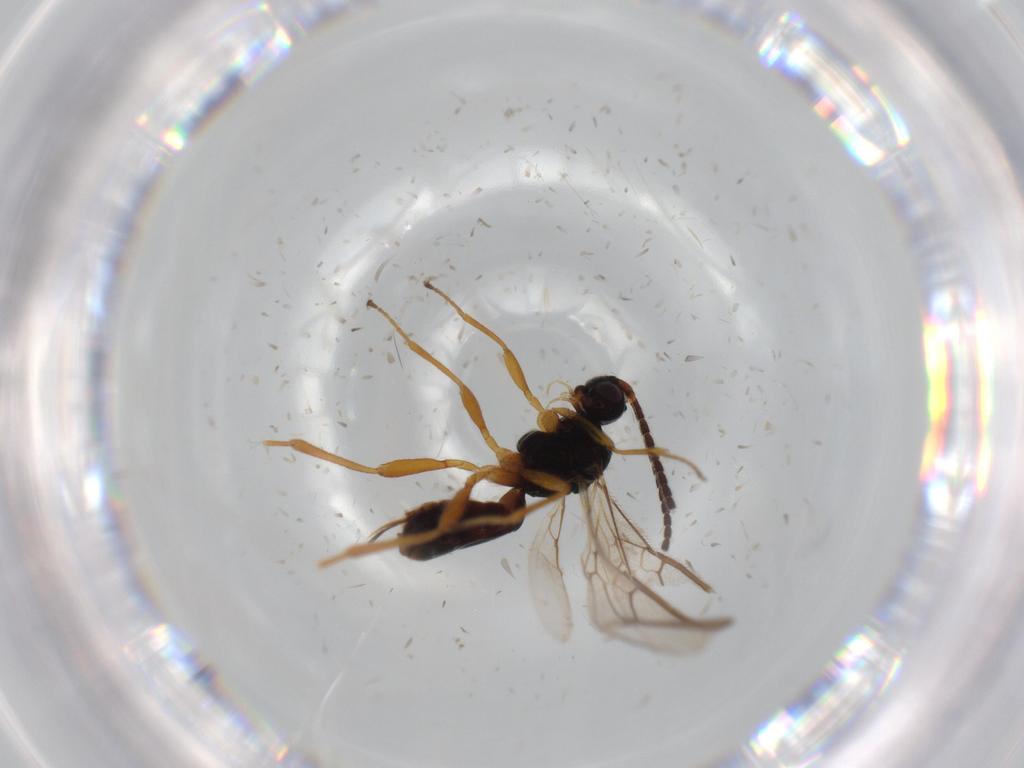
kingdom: Animalia
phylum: Arthropoda
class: Insecta
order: Hymenoptera
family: Braconidae
